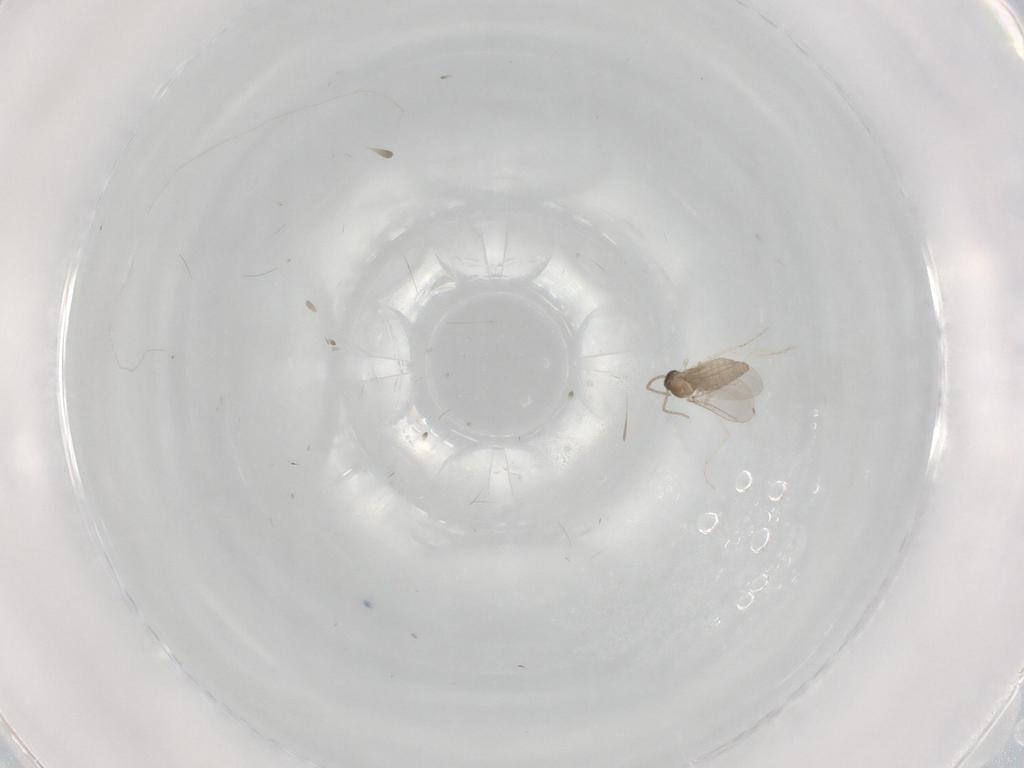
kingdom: Animalia
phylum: Arthropoda
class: Insecta
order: Diptera
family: Cecidomyiidae
